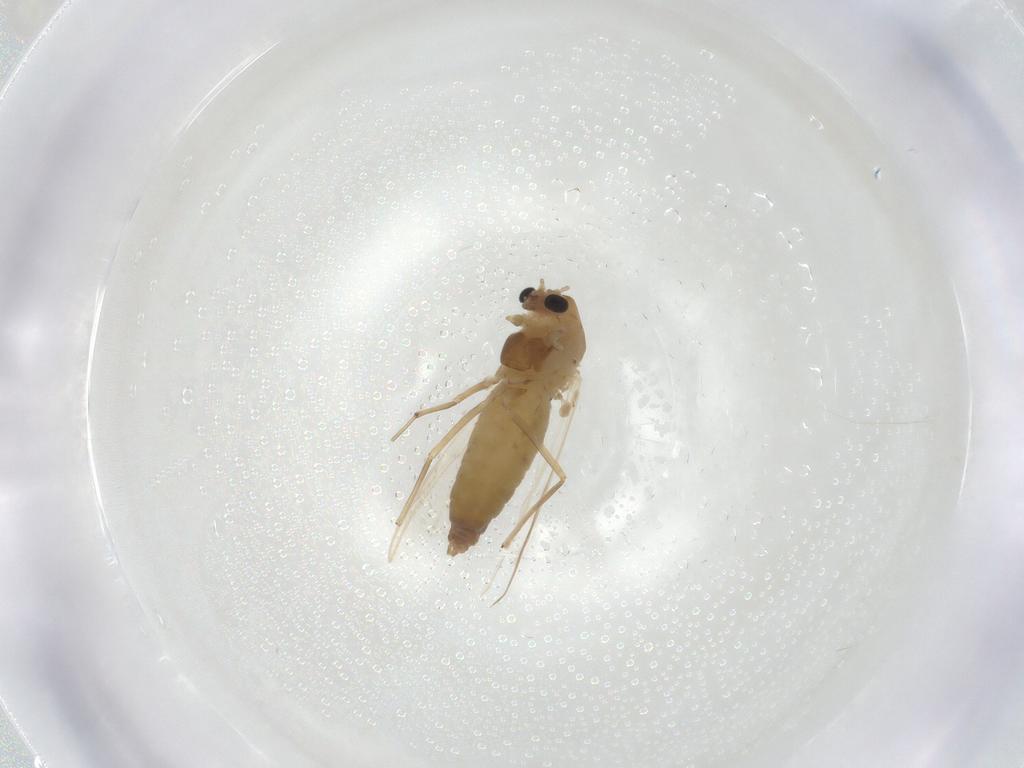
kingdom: Animalia
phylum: Arthropoda
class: Insecta
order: Diptera
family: Chironomidae
